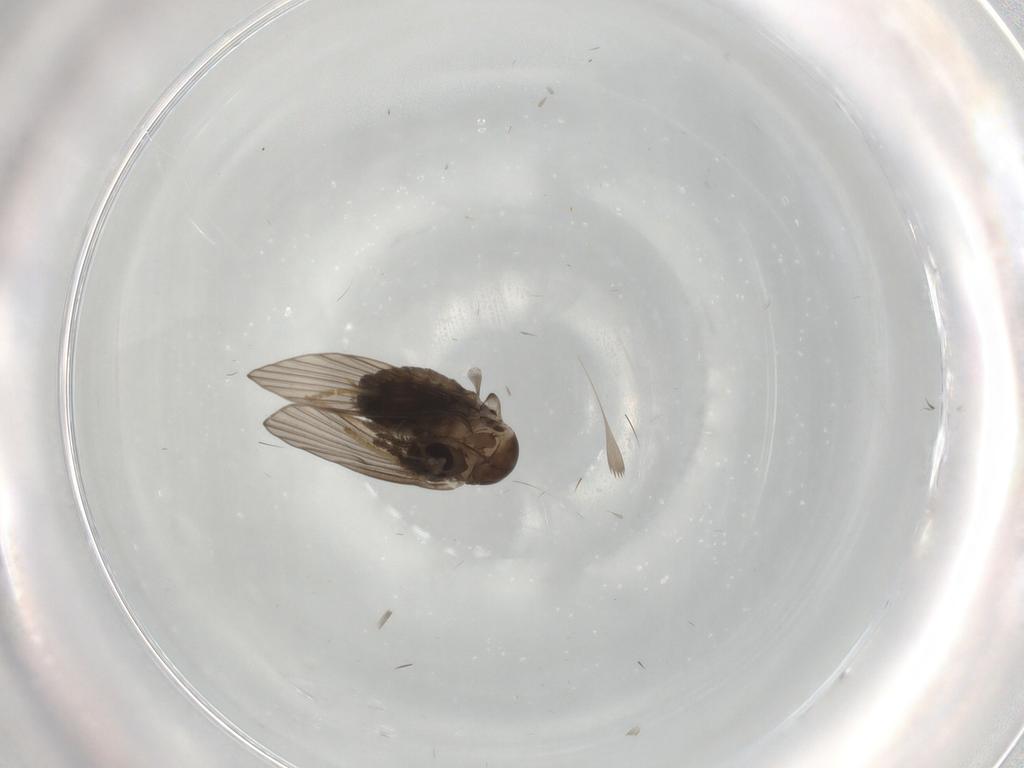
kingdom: Animalia
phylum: Arthropoda
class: Insecta
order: Diptera
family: Psychodidae
